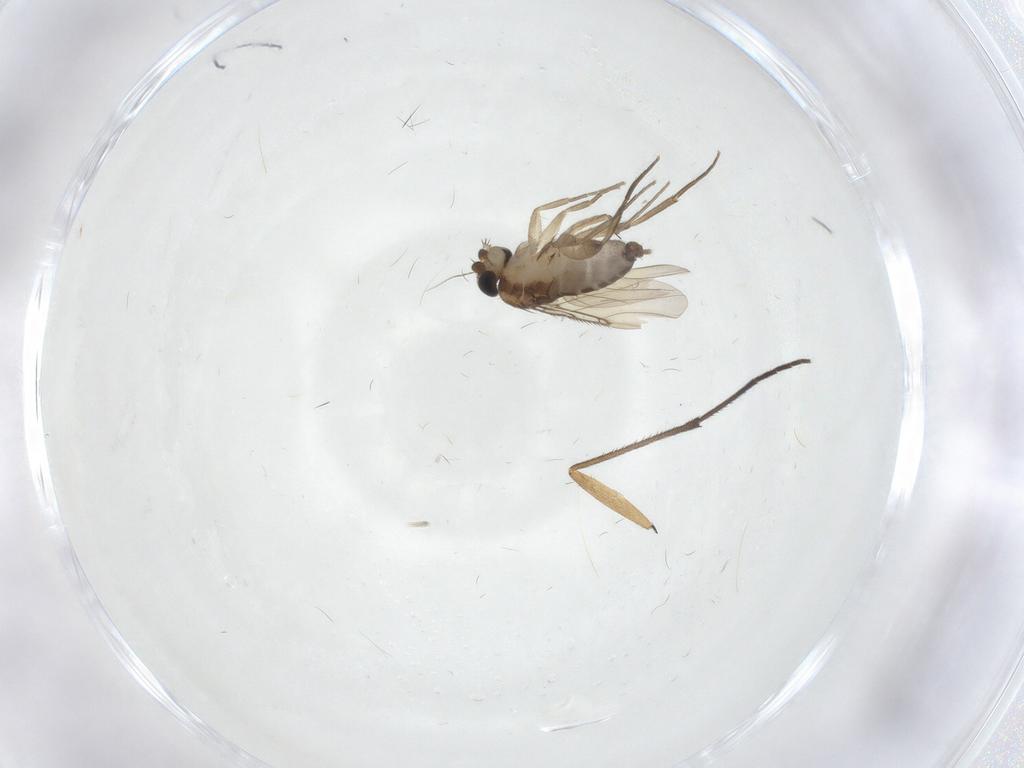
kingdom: Animalia
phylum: Arthropoda
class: Insecta
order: Diptera
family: Phoridae
